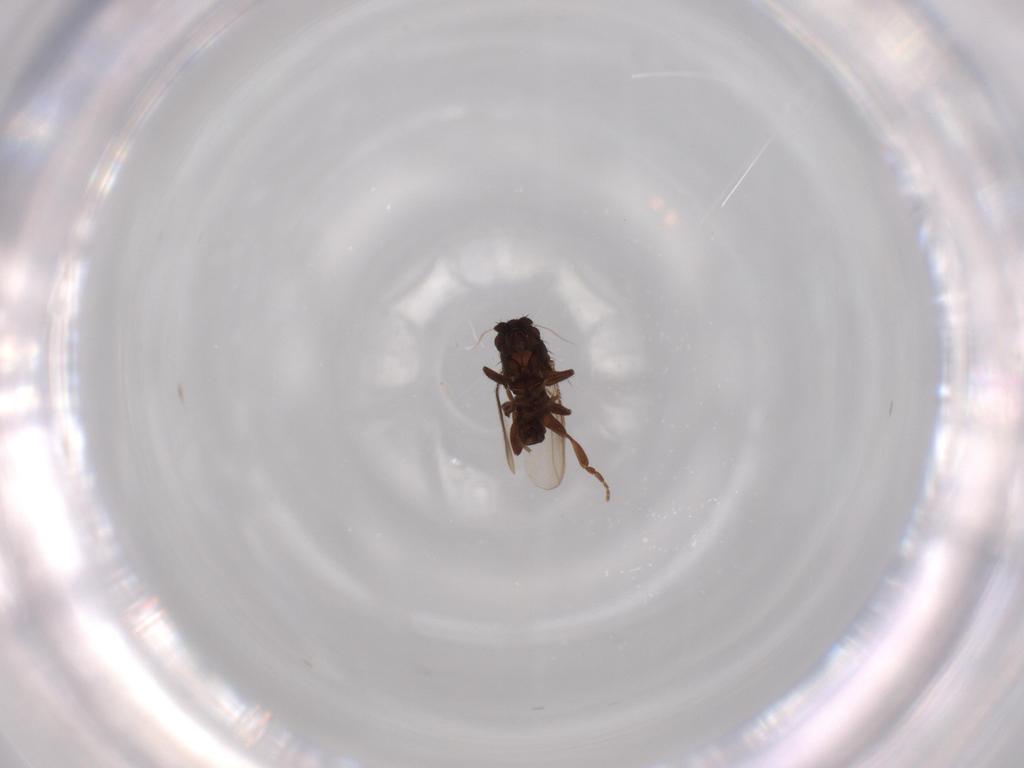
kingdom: Animalia
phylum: Arthropoda
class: Insecta
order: Diptera
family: Sphaeroceridae
